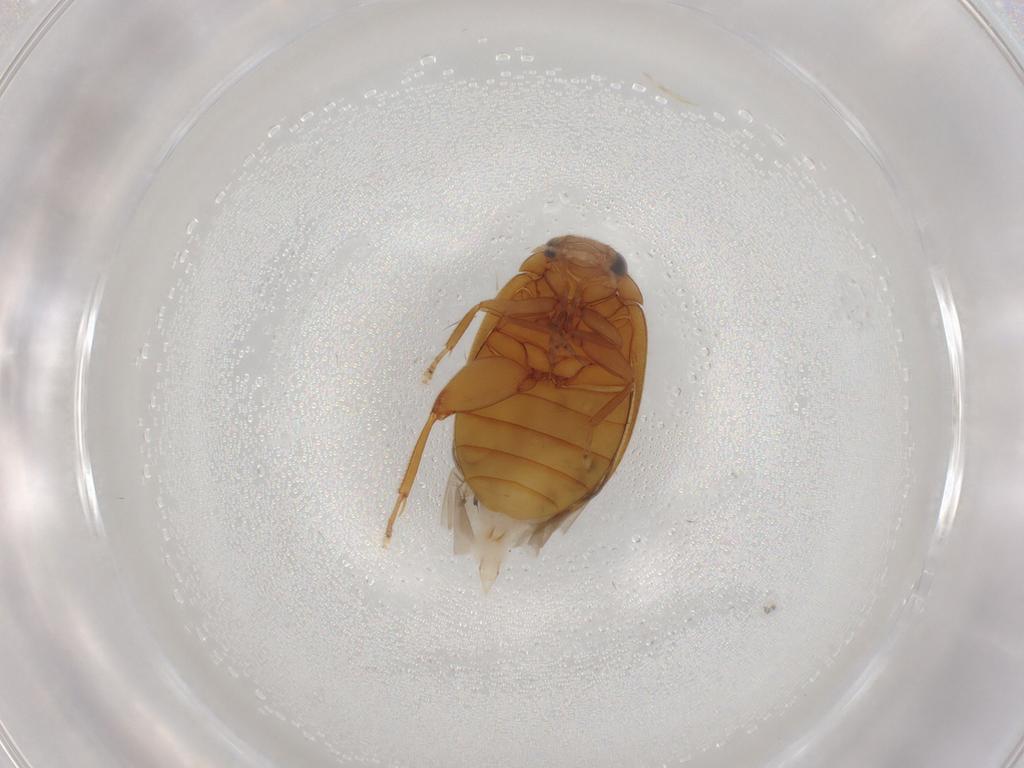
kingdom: Animalia
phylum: Arthropoda
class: Insecta
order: Coleoptera
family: Scirtidae
